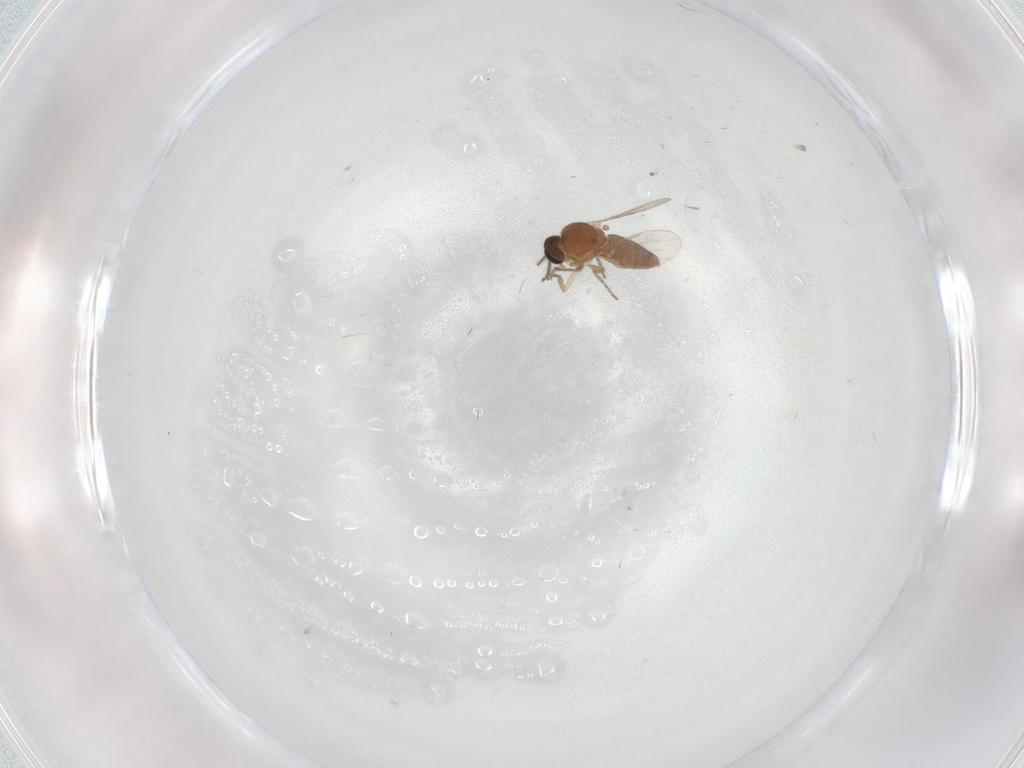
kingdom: Animalia
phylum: Arthropoda
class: Insecta
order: Diptera
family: Ceratopogonidae
